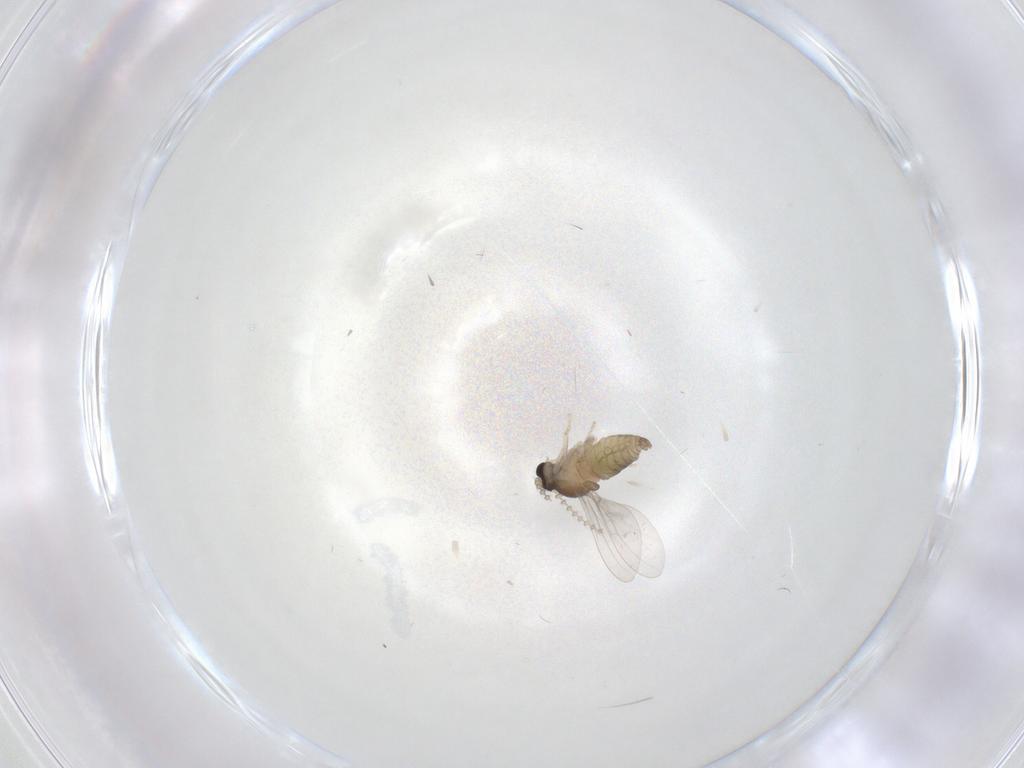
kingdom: Animalia
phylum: Arthropoda
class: Insecta
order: Diptera
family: Cecidomyiidae
